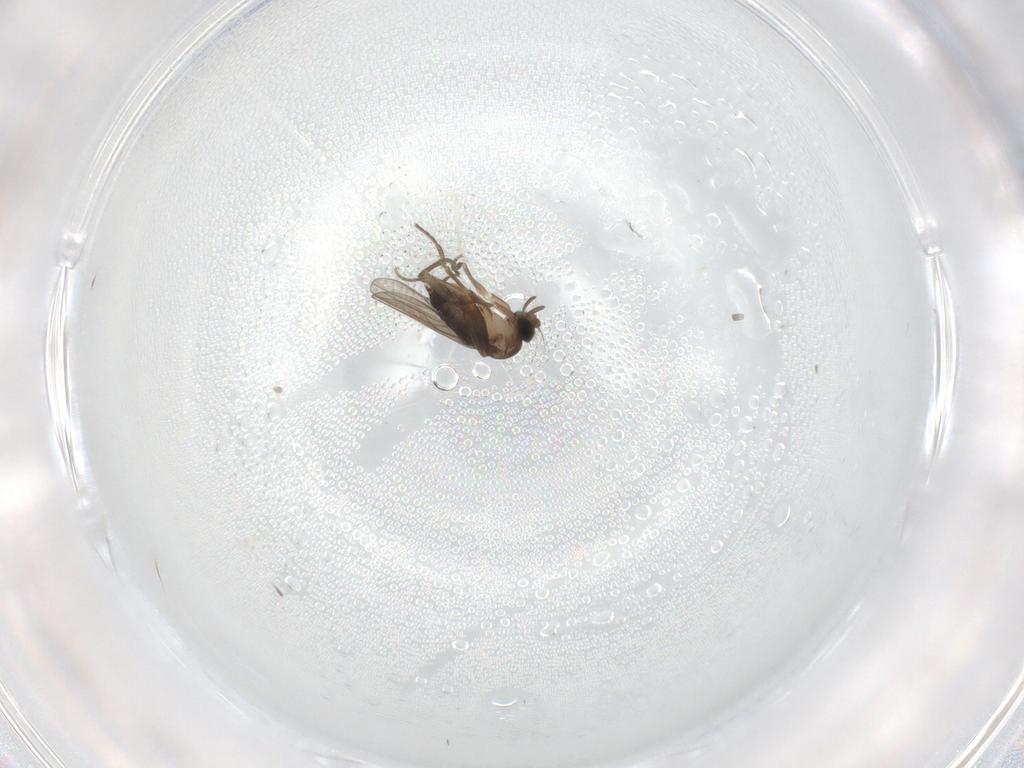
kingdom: Animalia
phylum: Arthropoda
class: Insecta
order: Diptera
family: Cecidomyiidae
